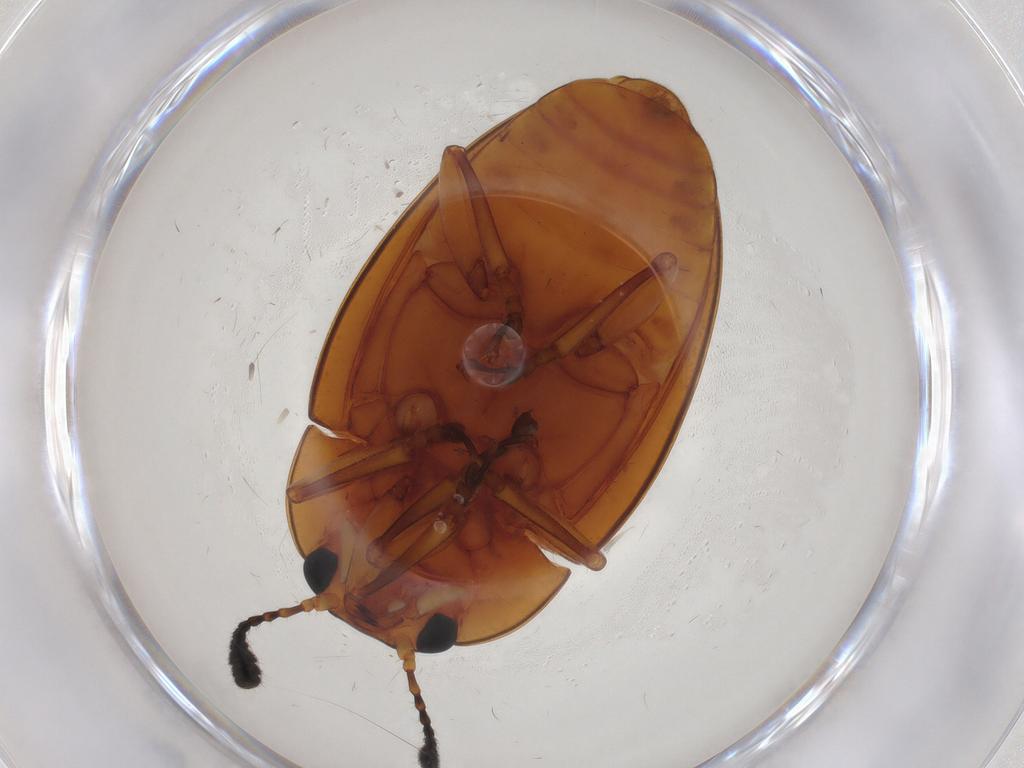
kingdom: Animalia
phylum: Arthropoda
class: Insecta
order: Coleoptera
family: Erotylidae
